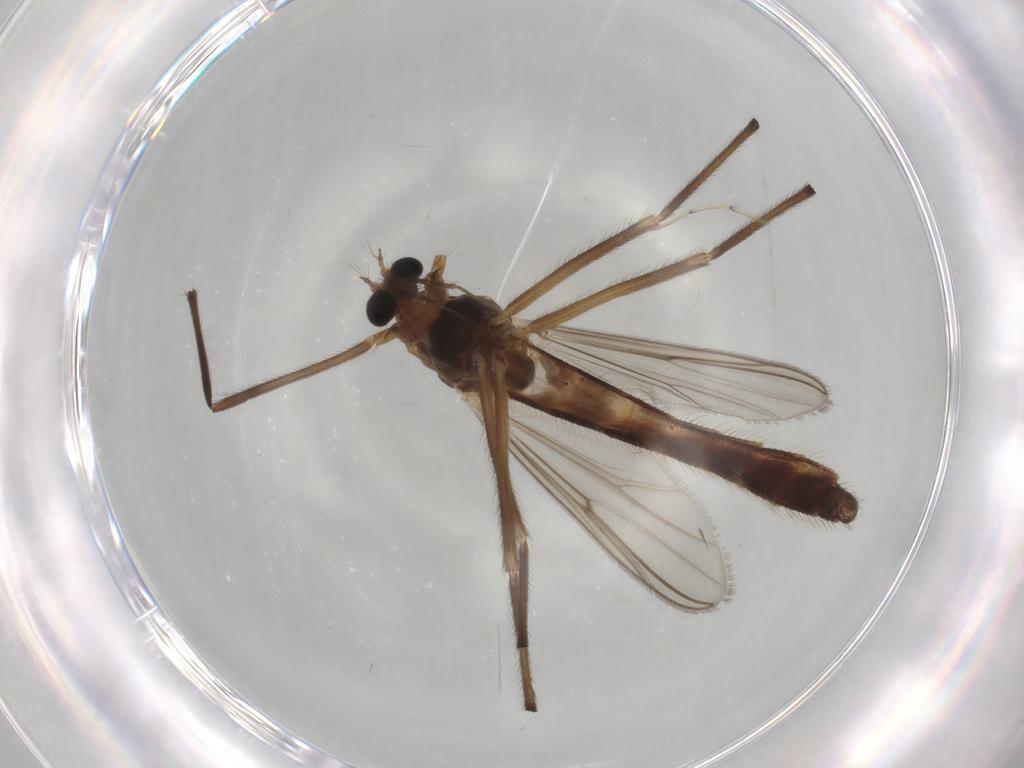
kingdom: Animalia
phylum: Arthropoda
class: Insecta
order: Diptera
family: Chironomidae
